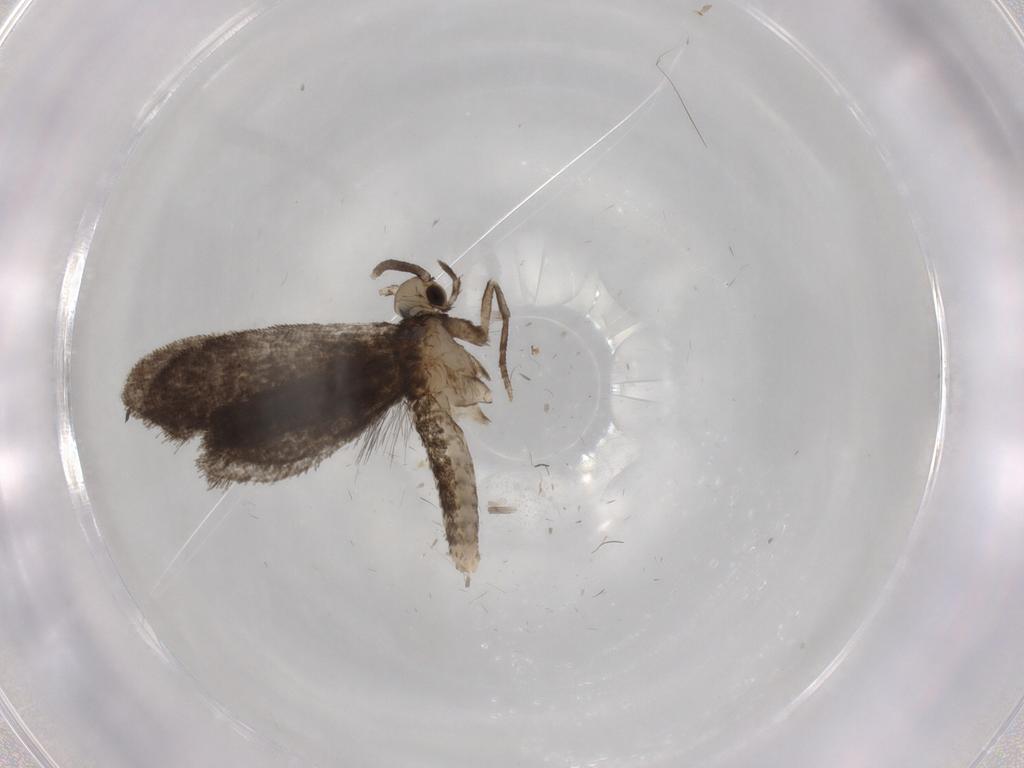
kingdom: Animalia
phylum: Arthropoda
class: Insecta
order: Lepidoptera
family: Nymphalidae
